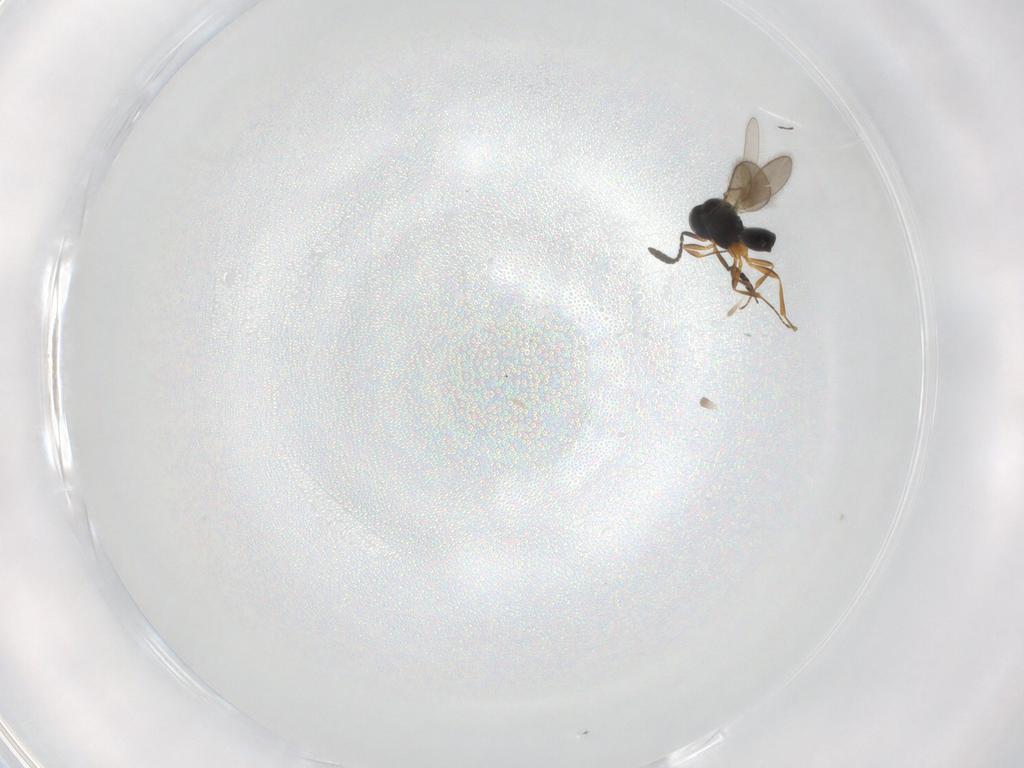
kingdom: Animalia
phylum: Arthropoda
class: Insecta
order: Hymenoptera
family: Scelionidae
